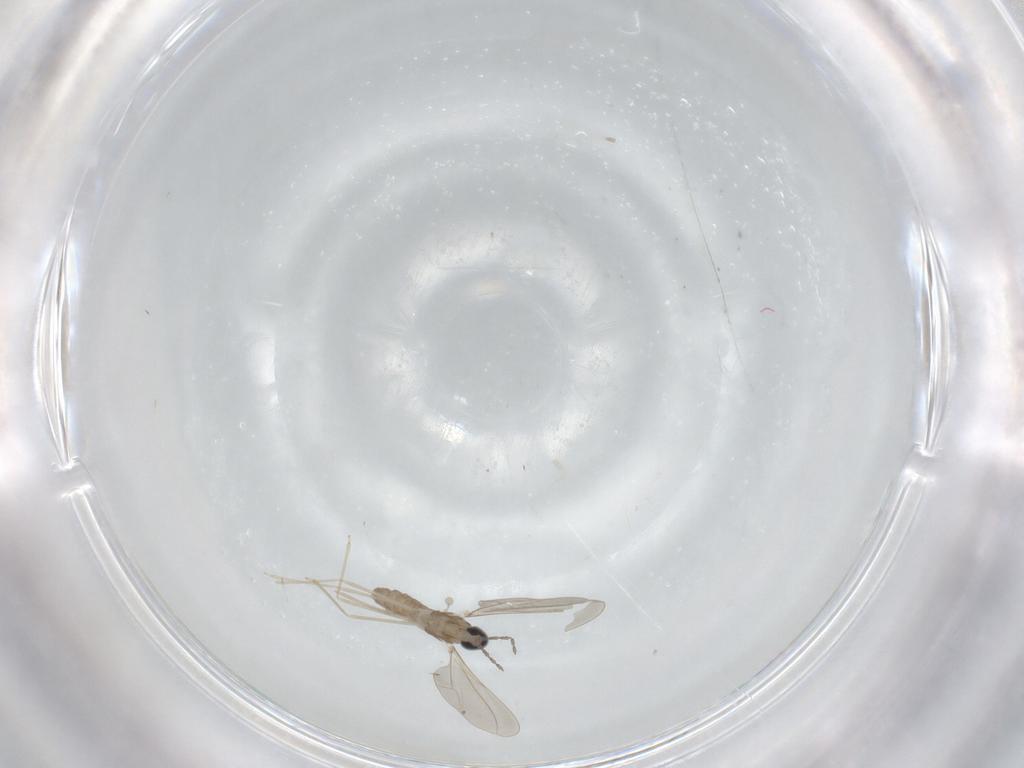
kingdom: Animalia
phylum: Arthropoda
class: Insecta
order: Diptera
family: Cecidomyiidae
